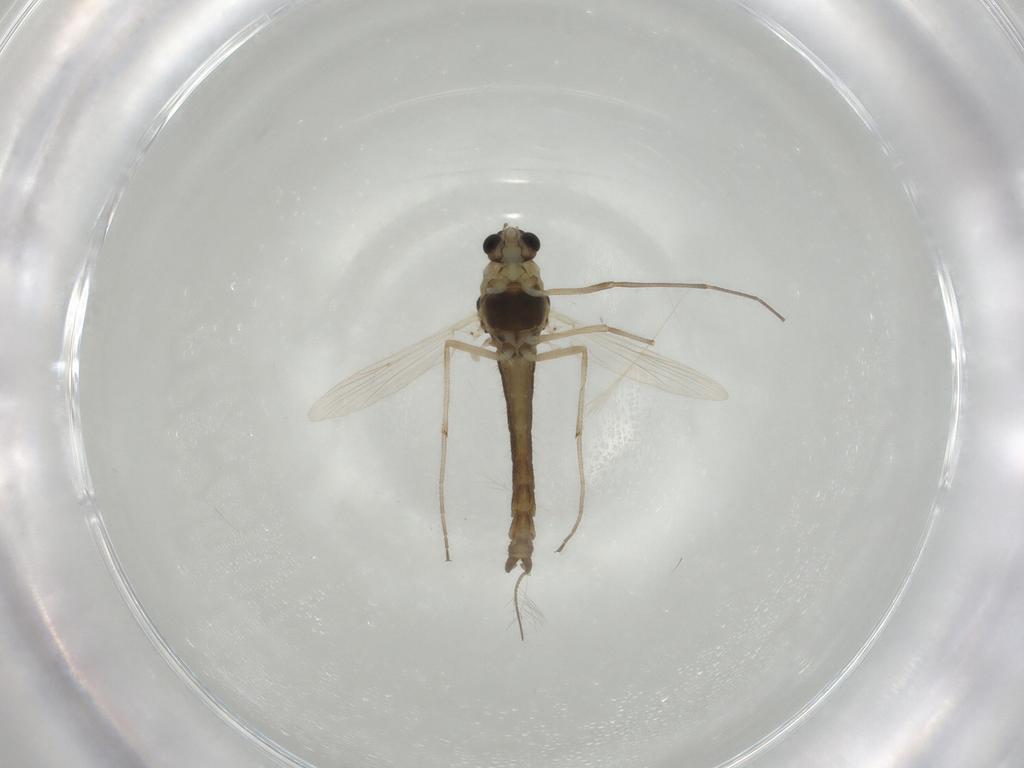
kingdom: Animalia
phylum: Arthropoda
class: Insecta
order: Diptera
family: Chironomidae
